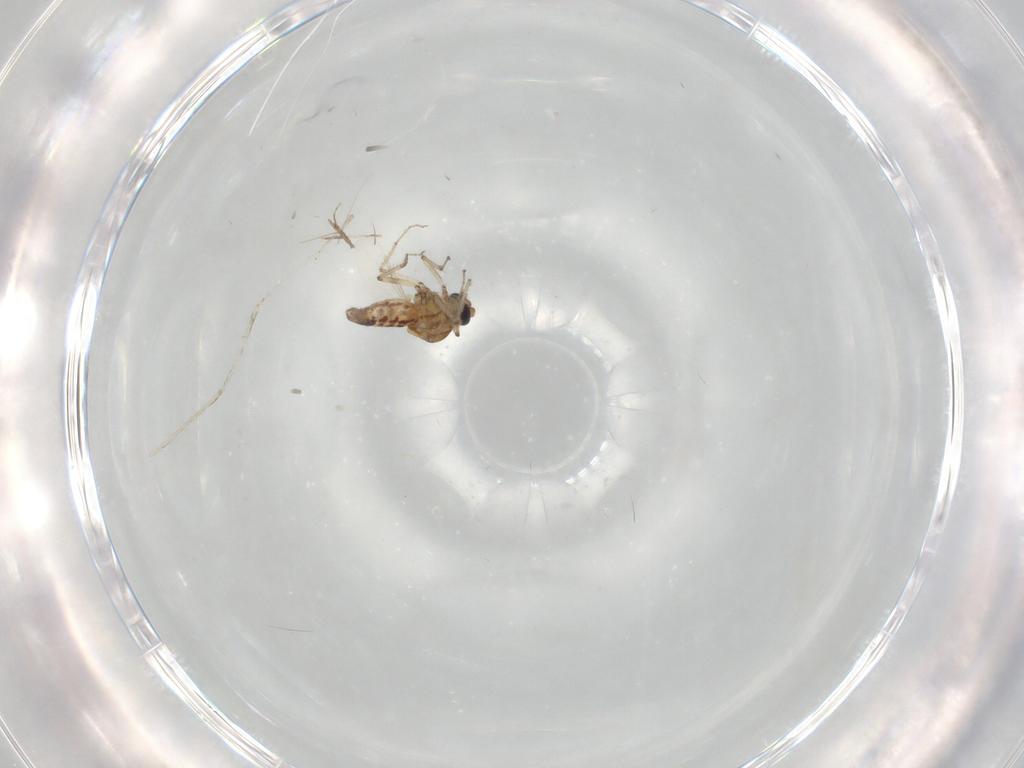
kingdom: Animalia
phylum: Arthropoda
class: Insecta
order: Diptera
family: Ceratopogonidae
